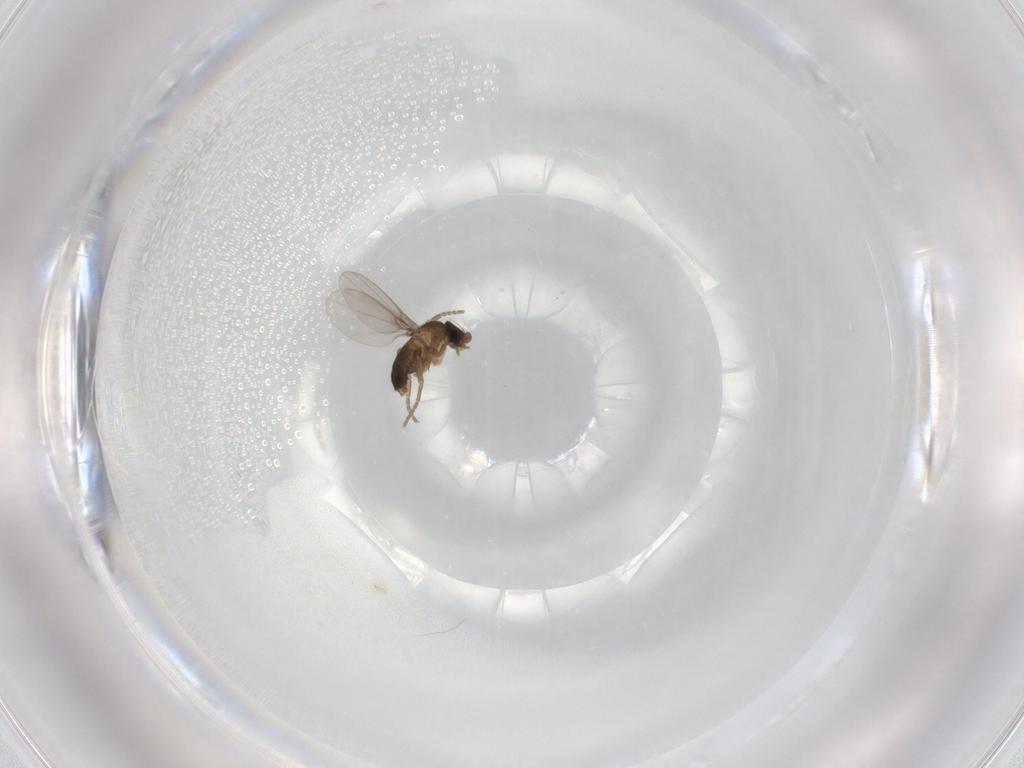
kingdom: Animalia
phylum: Arthropoda
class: Insecta
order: Diptera
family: Phoridae
